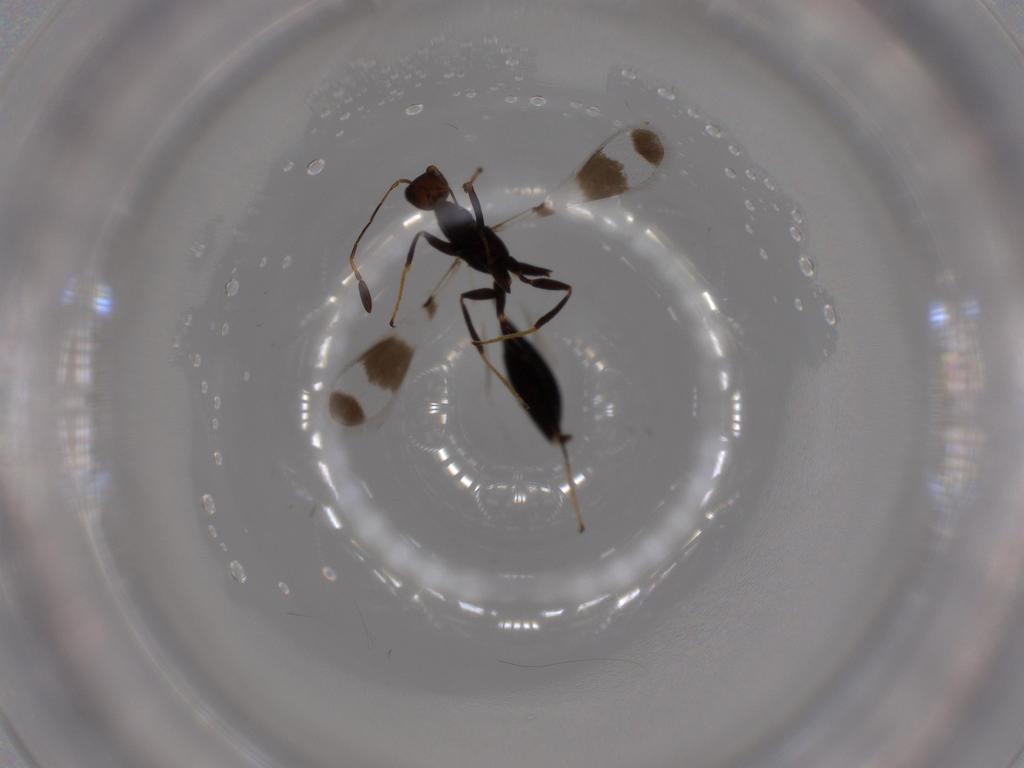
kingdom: Animalia
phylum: Arthropoda
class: Insecta
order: Hymenoptera
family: Mymaridae
